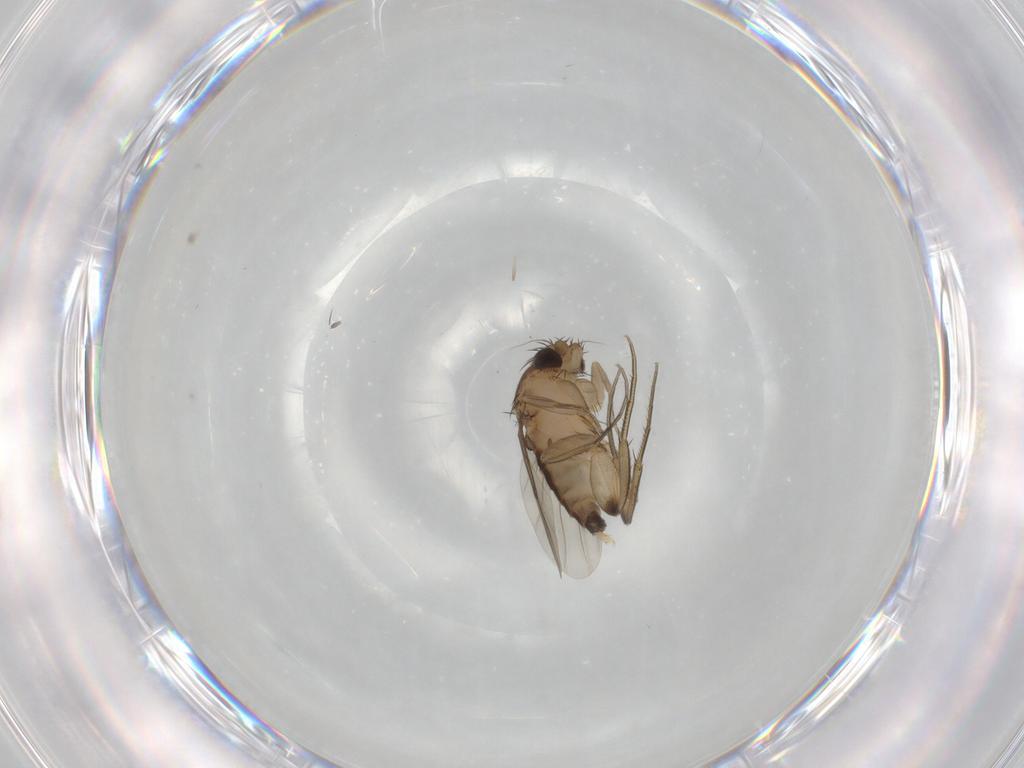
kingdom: Animalia
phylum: Arthropoda
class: Insecta
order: Diptera
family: Phoridae
